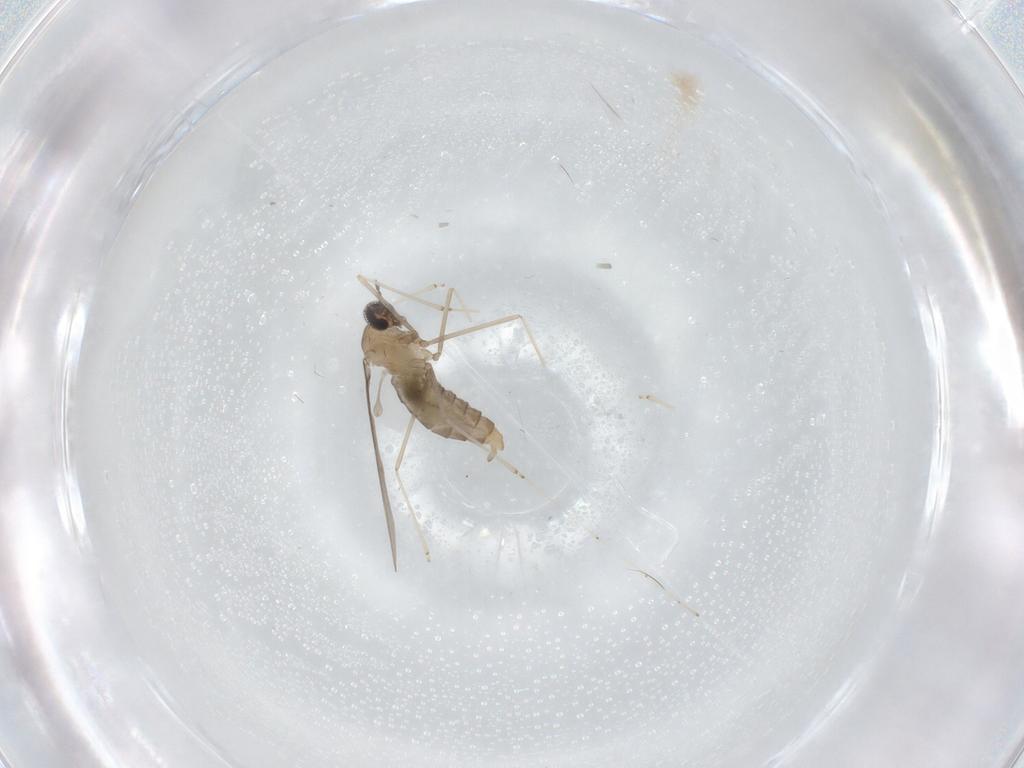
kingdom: Animalia
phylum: Arthropoda
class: Insecta
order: Diptera
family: Cecidomyiidae
